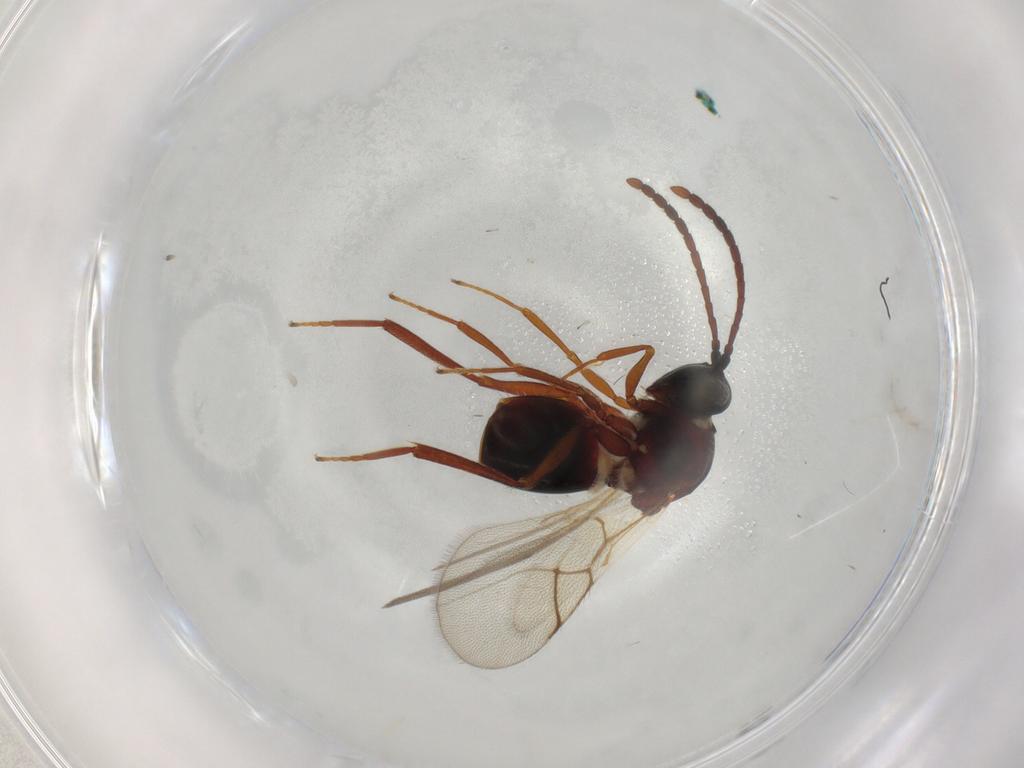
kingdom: Animalia
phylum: Arthropoda
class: Insecta
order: Hymenoptera
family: Figitidae
